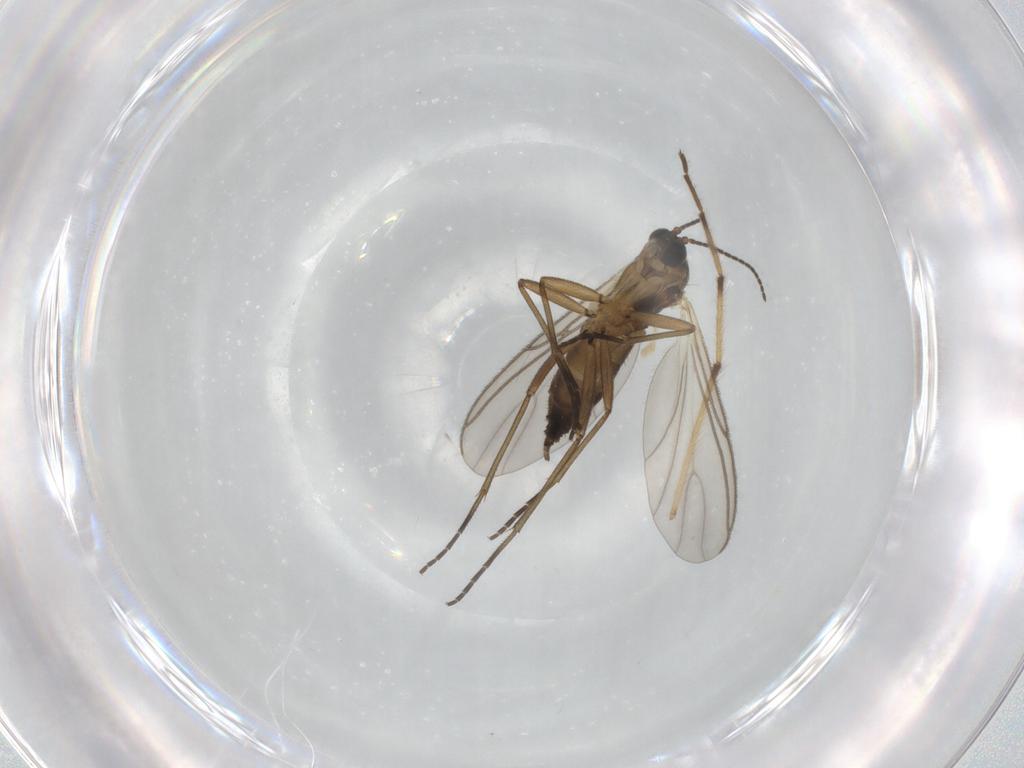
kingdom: Animalia
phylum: Arthropoda
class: Insecta
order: Diptera
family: Chironomidae
